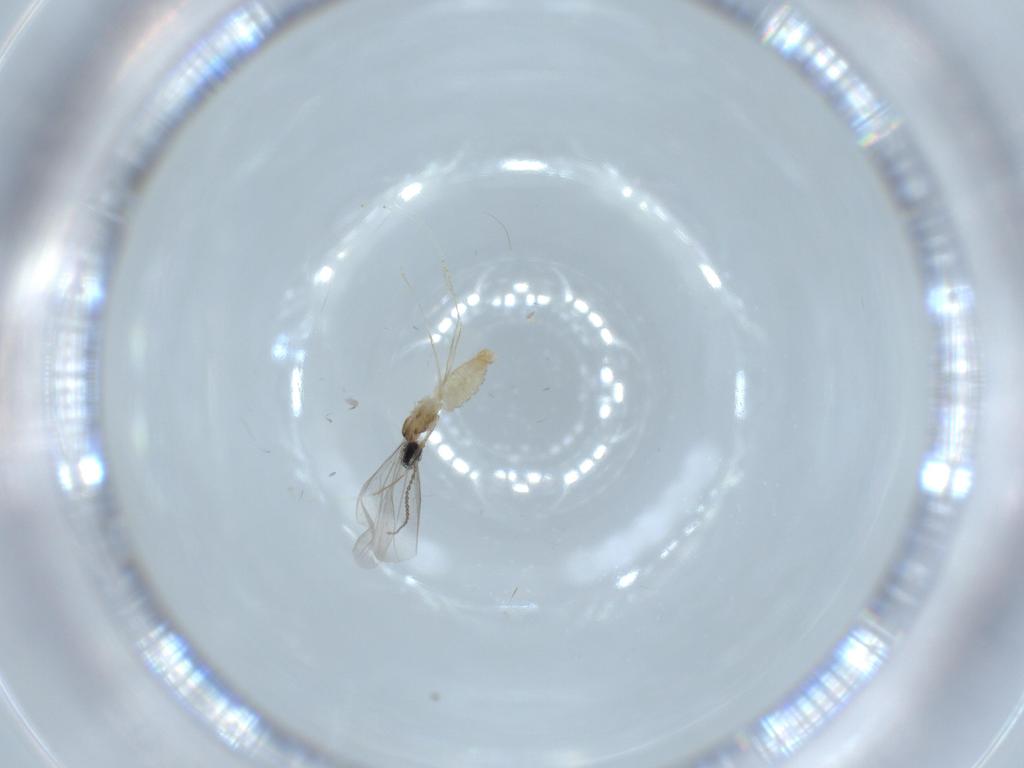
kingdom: Animalia
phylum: Arthropoda
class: Insecta
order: Diptera
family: Cecidomyiidae
